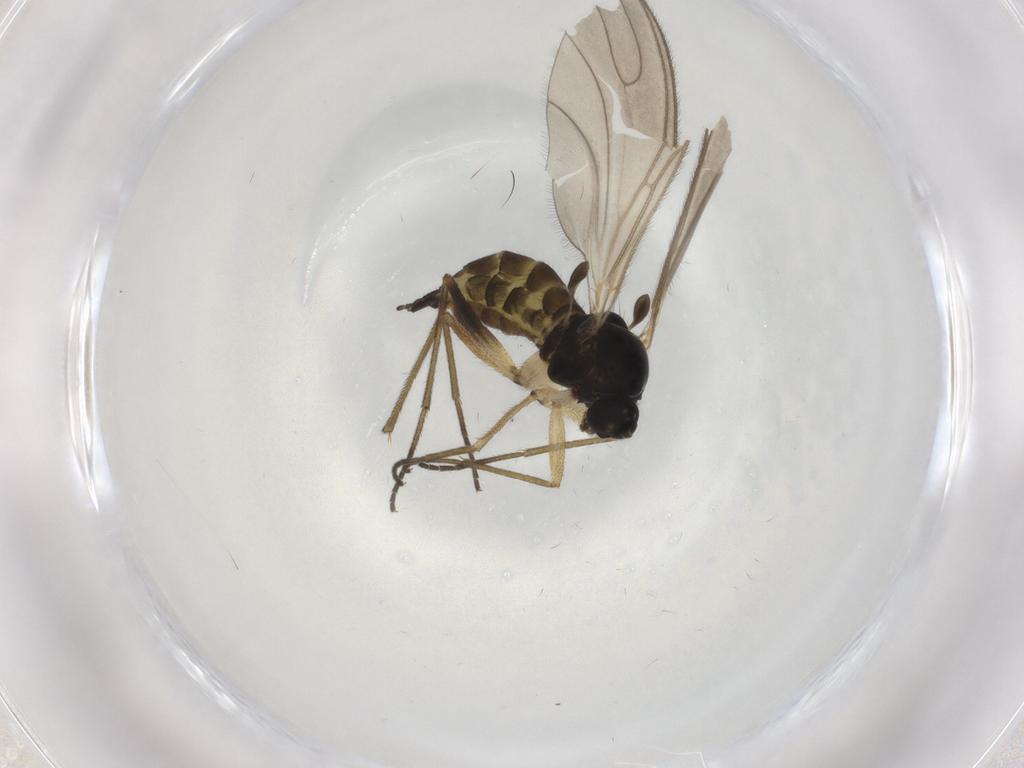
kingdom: Animalia
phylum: Arthropoda
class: Insecta
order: Diptera
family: Sciaridae
